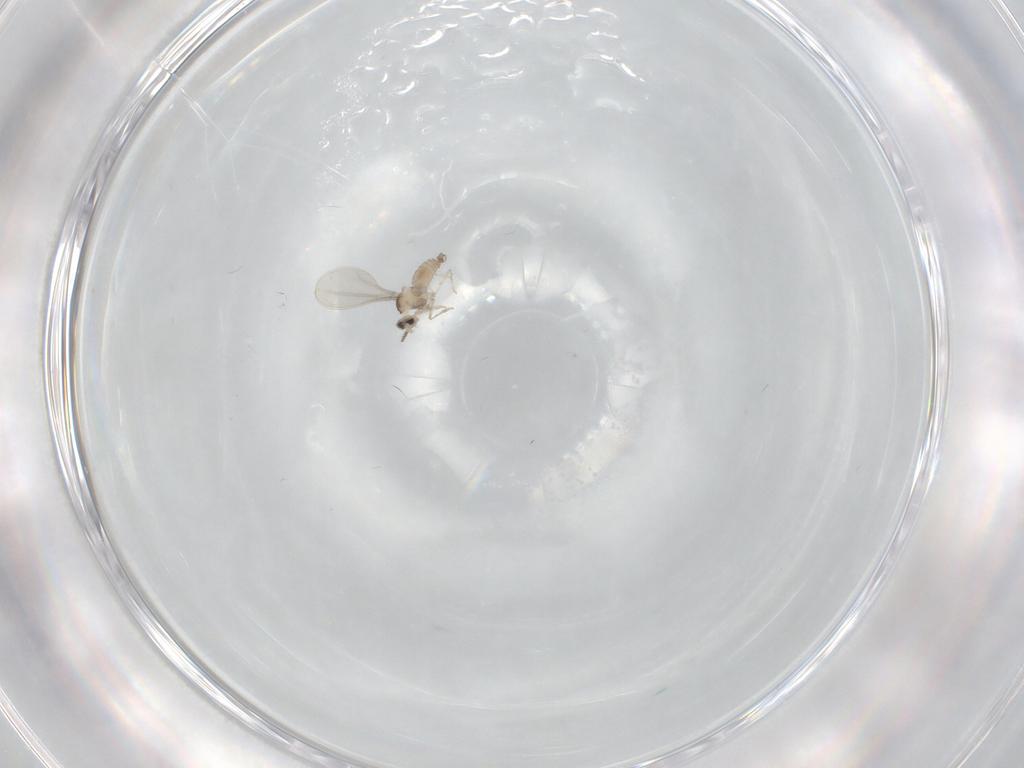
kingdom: Animalia
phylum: Arthropoda
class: Insecta
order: Diptera
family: Cecidomyiidae
